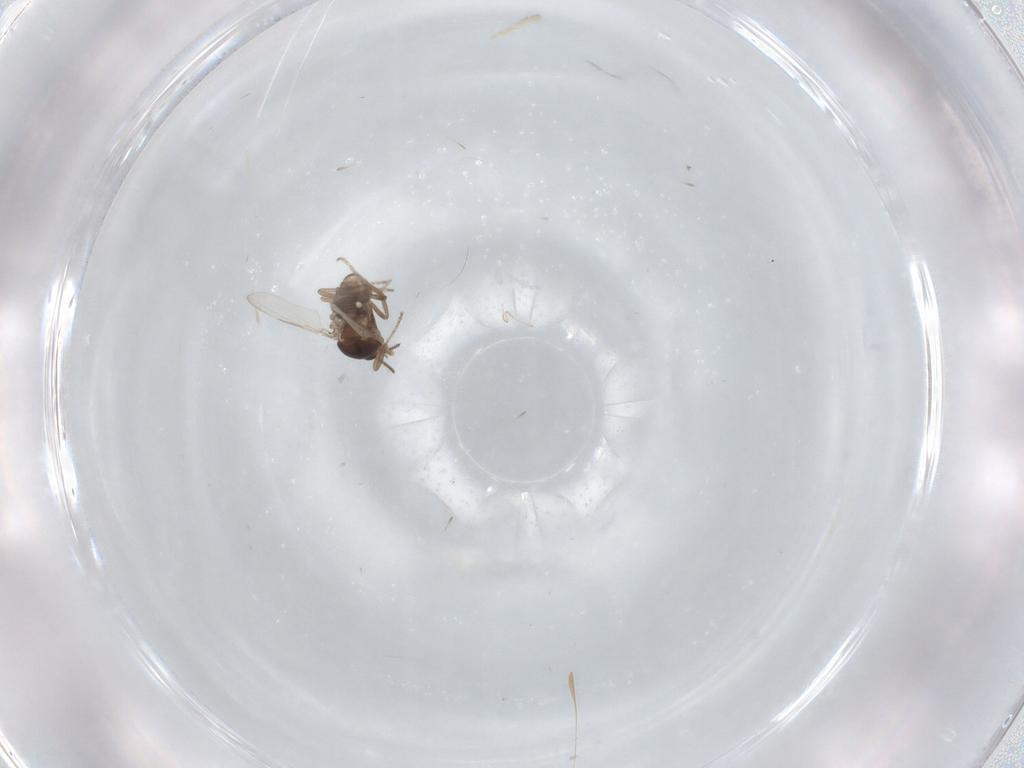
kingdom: Animalia
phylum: Arthropoda
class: Insecta
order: Diptera
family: Ceratopogonidae
